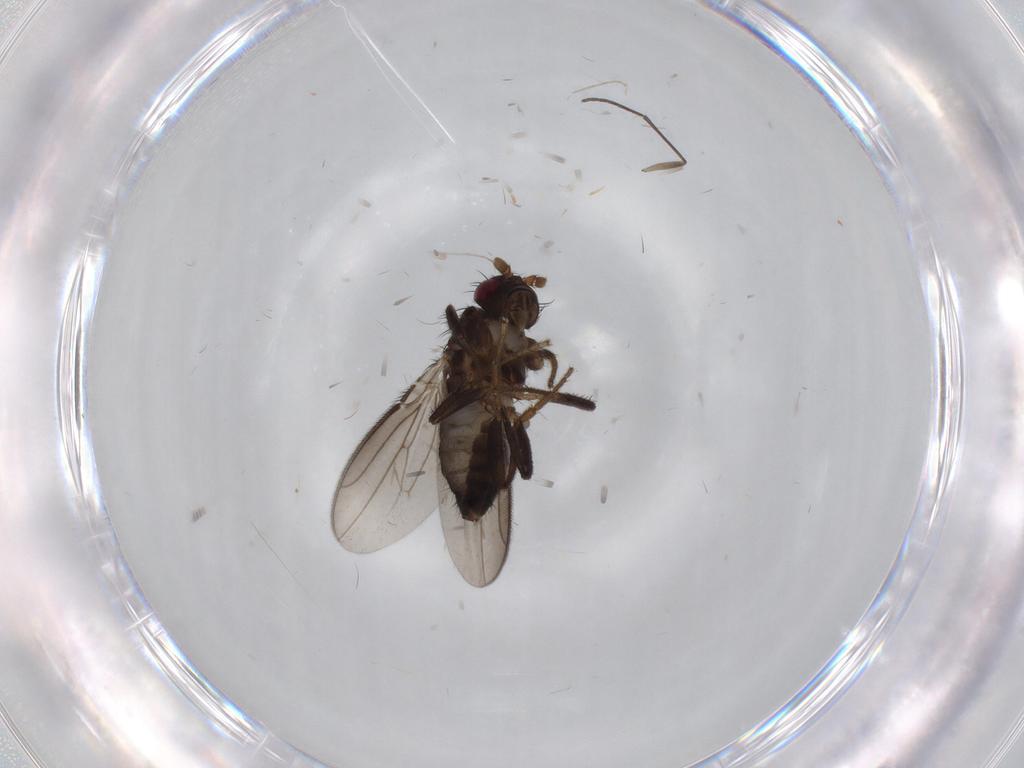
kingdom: Animalia
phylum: Arthropoda
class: Insecta
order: Diptera
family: Sphaeroceridae
